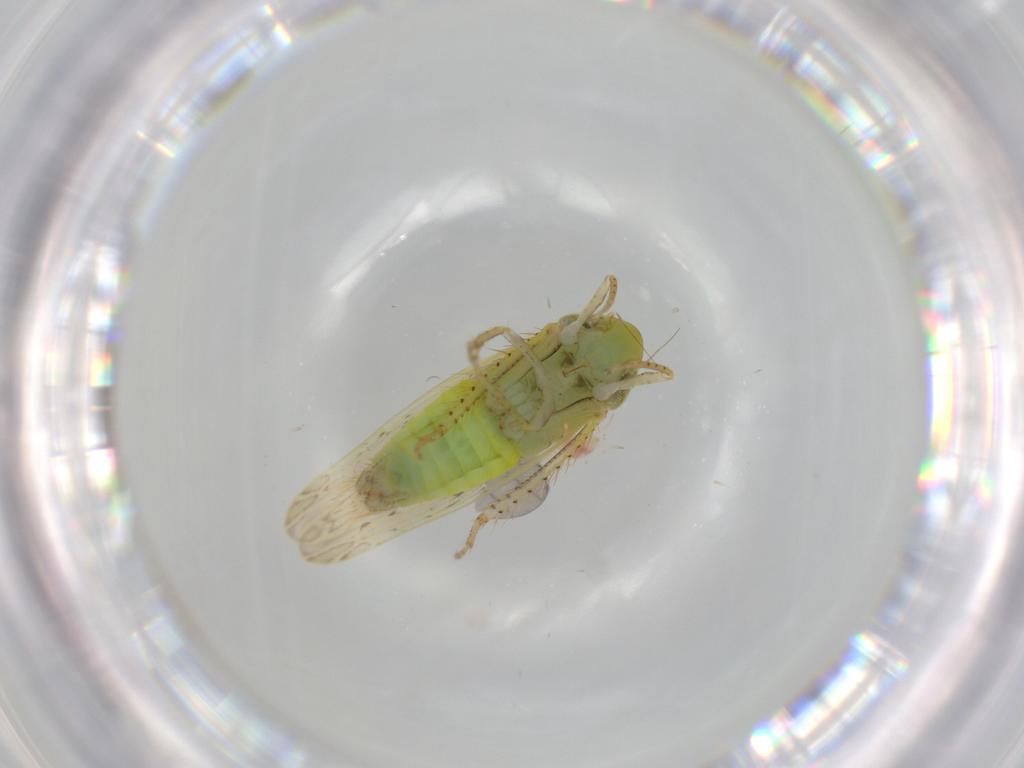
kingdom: Animalia
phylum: Arthropoda
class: Insecta
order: Hemiptera
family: Cicadellidae
